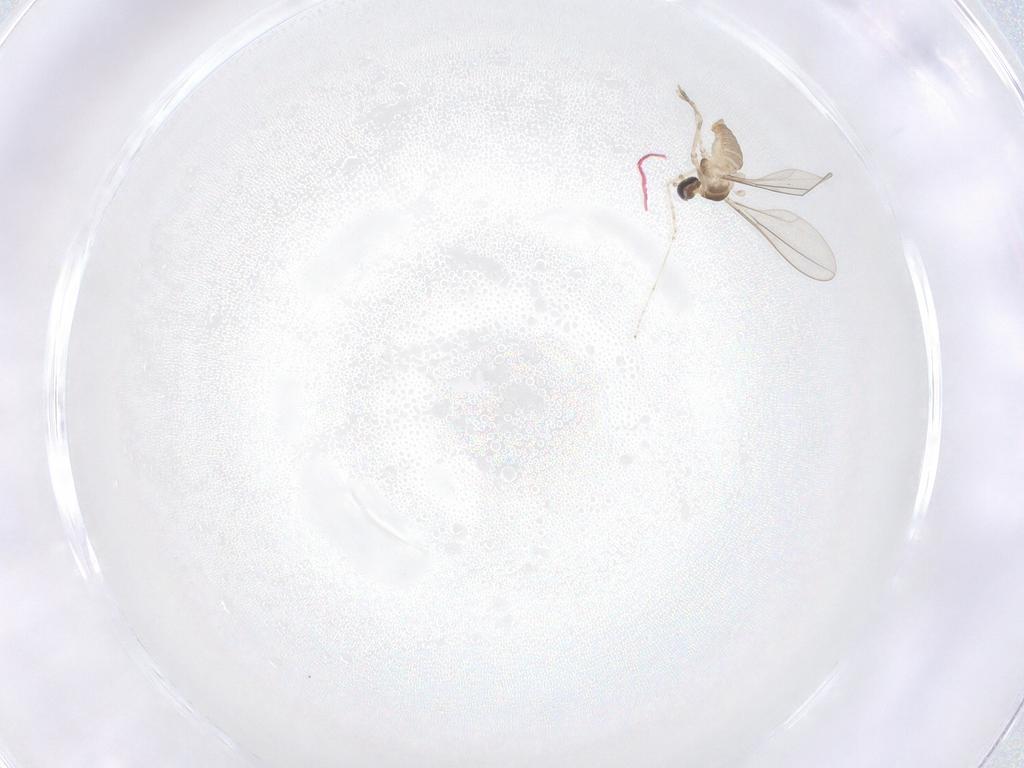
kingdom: Animalia
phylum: Arthropoda
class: Insecta
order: Diptera
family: Cecidomyiidae
